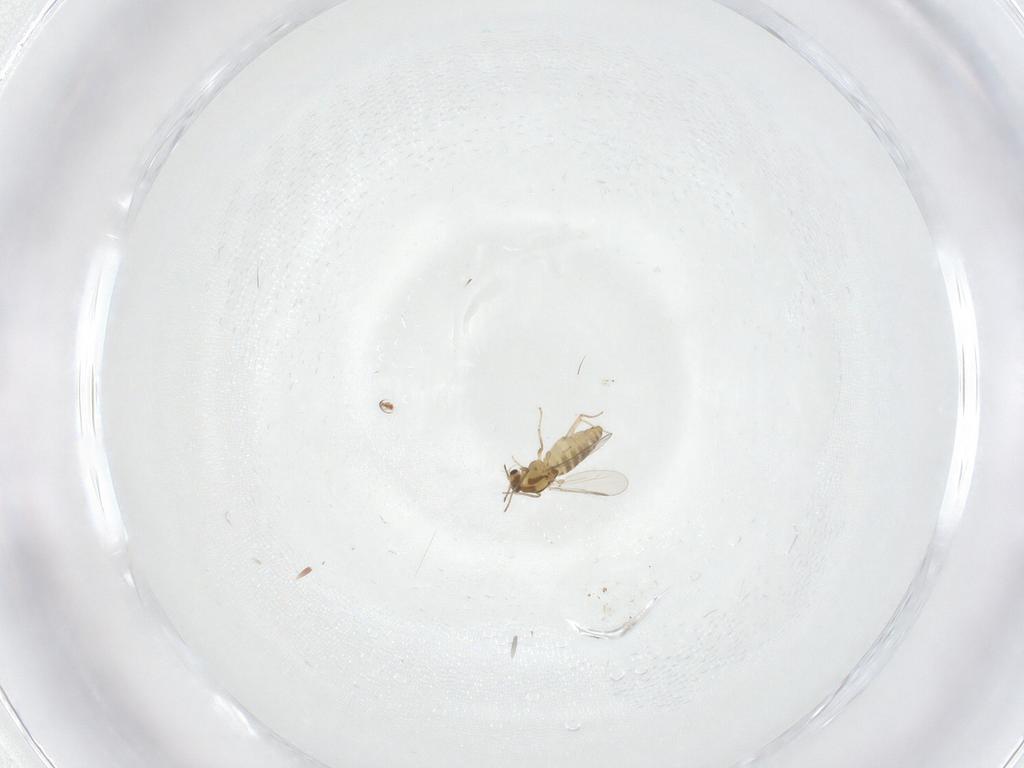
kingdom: Animalia
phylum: Arthropoda
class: Insecta
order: Diptera
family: Chironomidae
